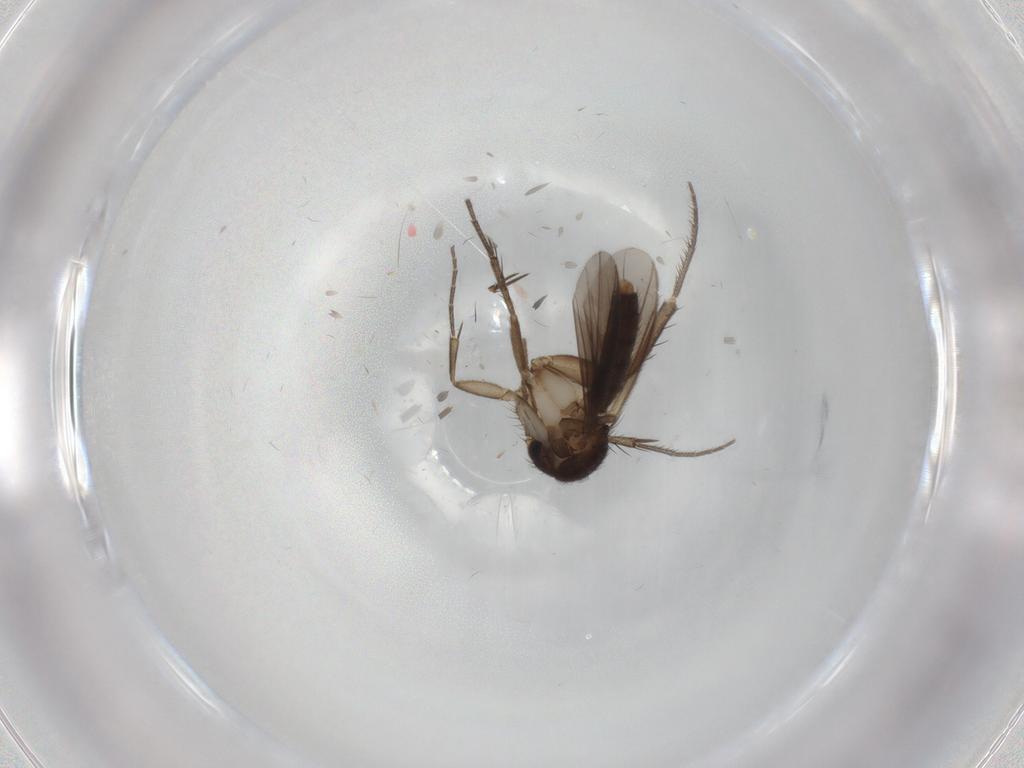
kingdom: Animalia
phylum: Arthropoda
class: Insecta
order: Diptera
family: Mycetophilidae
